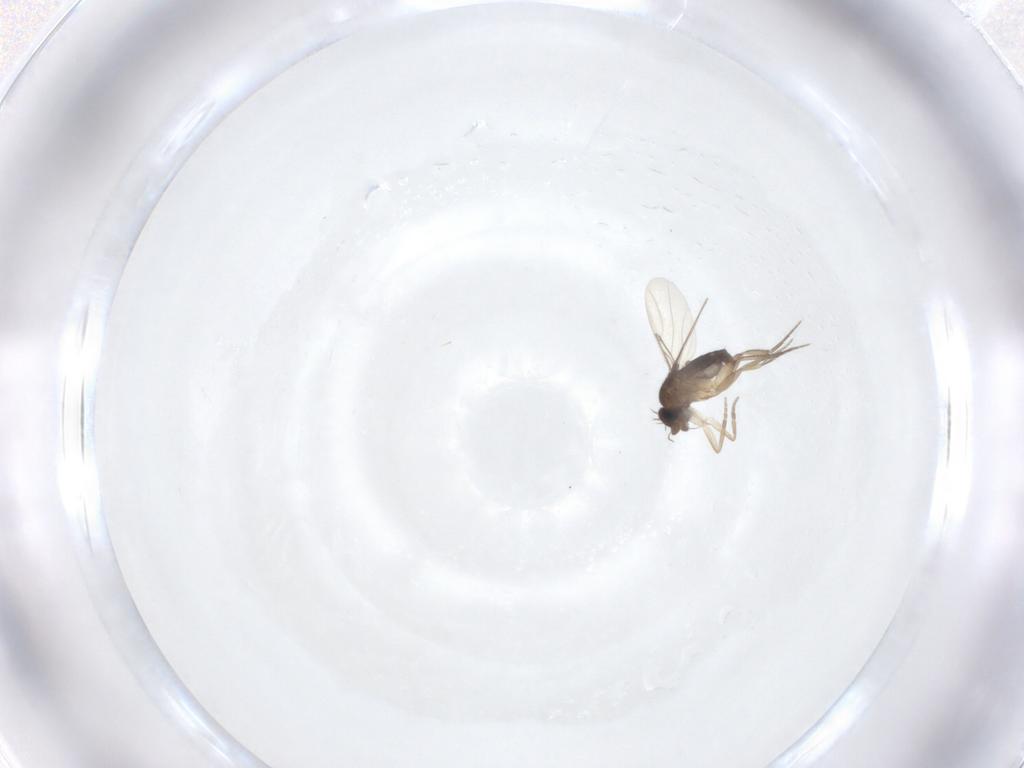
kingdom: Animalia
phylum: Arthropoda
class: Insecta
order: Diptera
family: Phoridae
